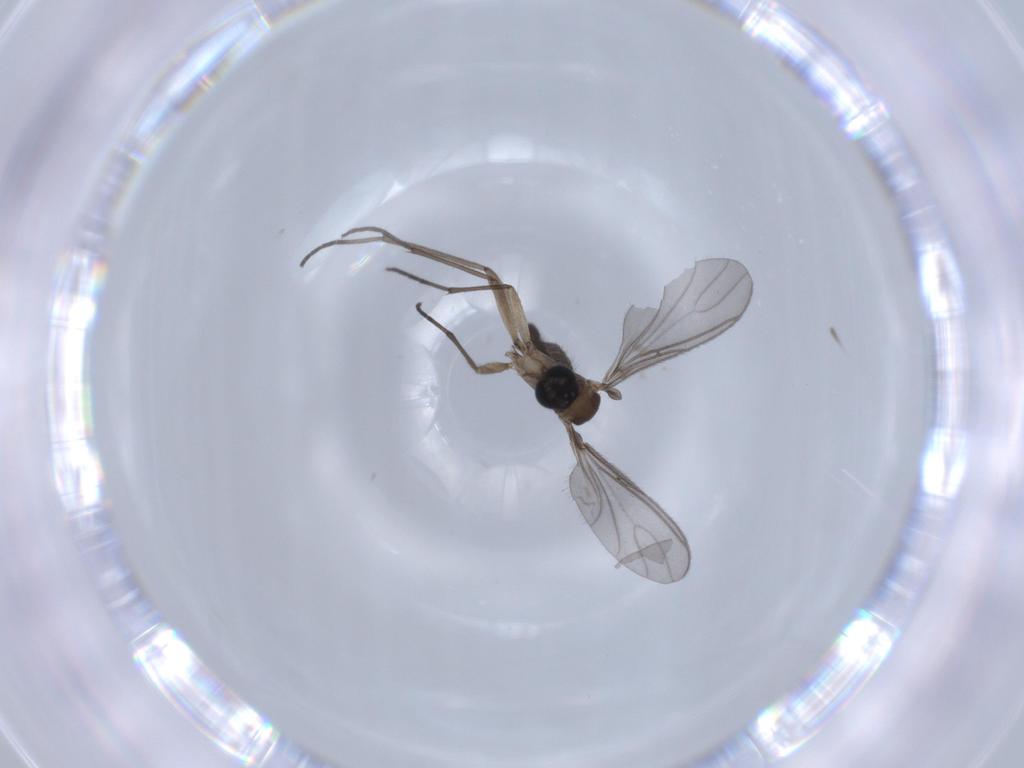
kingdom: Animalia
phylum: Arthropoda
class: Insecta
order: Diptera
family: Sciaridae
